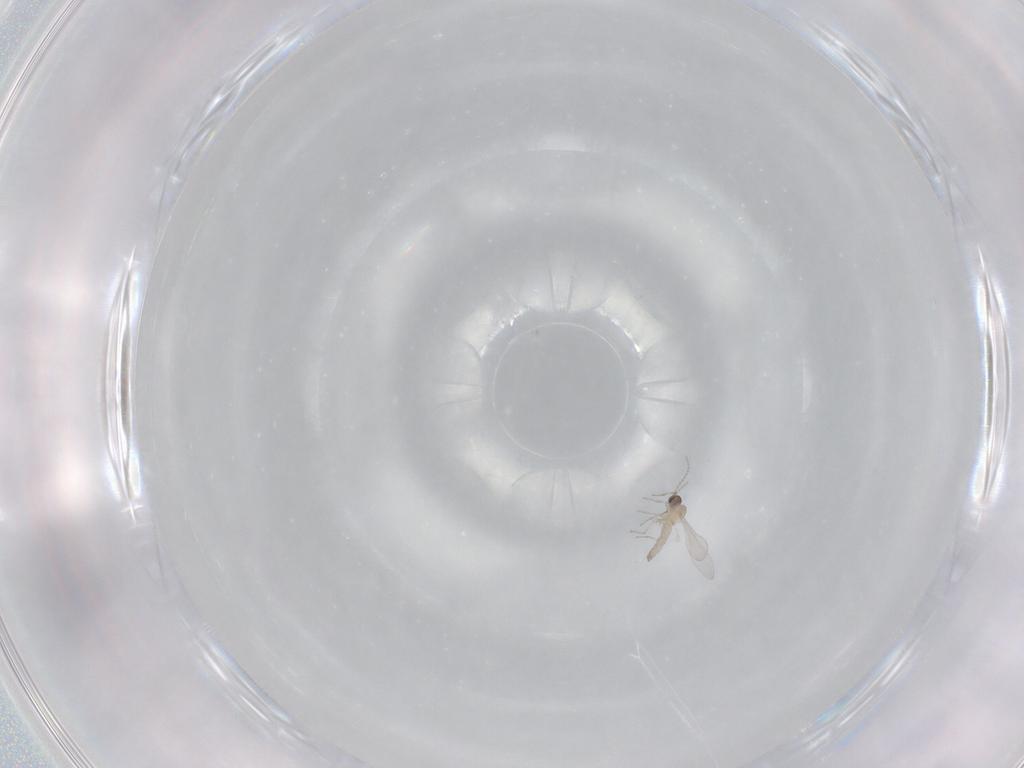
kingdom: Animalia
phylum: Arthropoda
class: Insecta
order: Diptera
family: Cecidomyiidae
